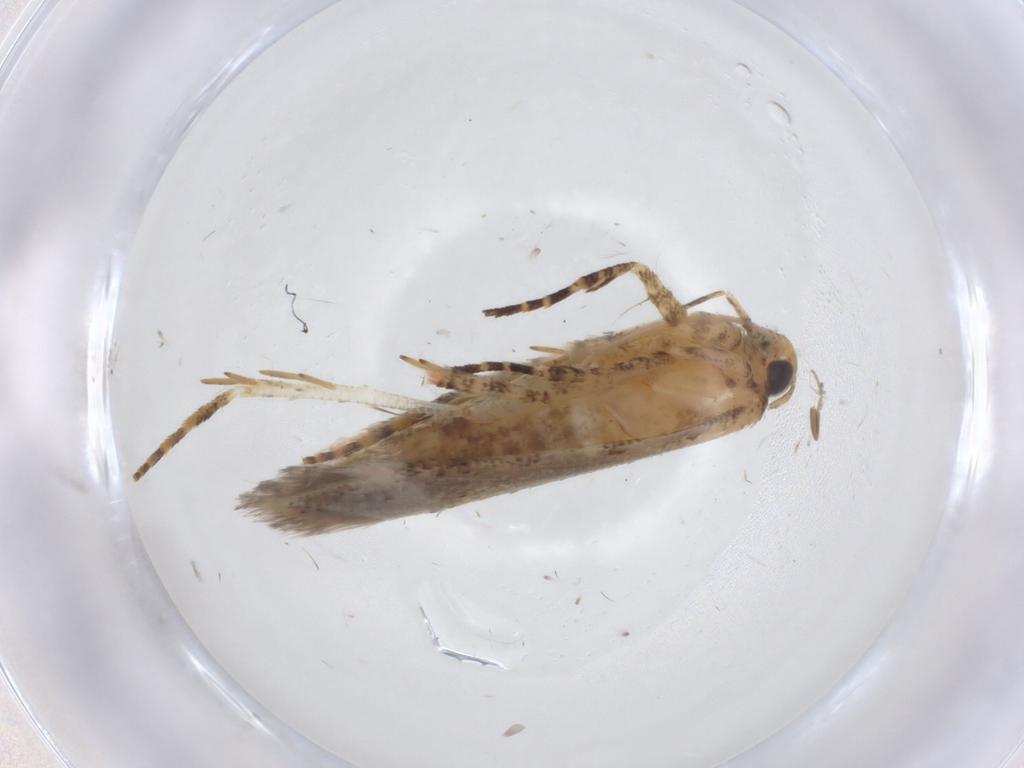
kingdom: Animalia
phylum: Arthropoda
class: Insecta
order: Lepidoptera
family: Gelechiidae
